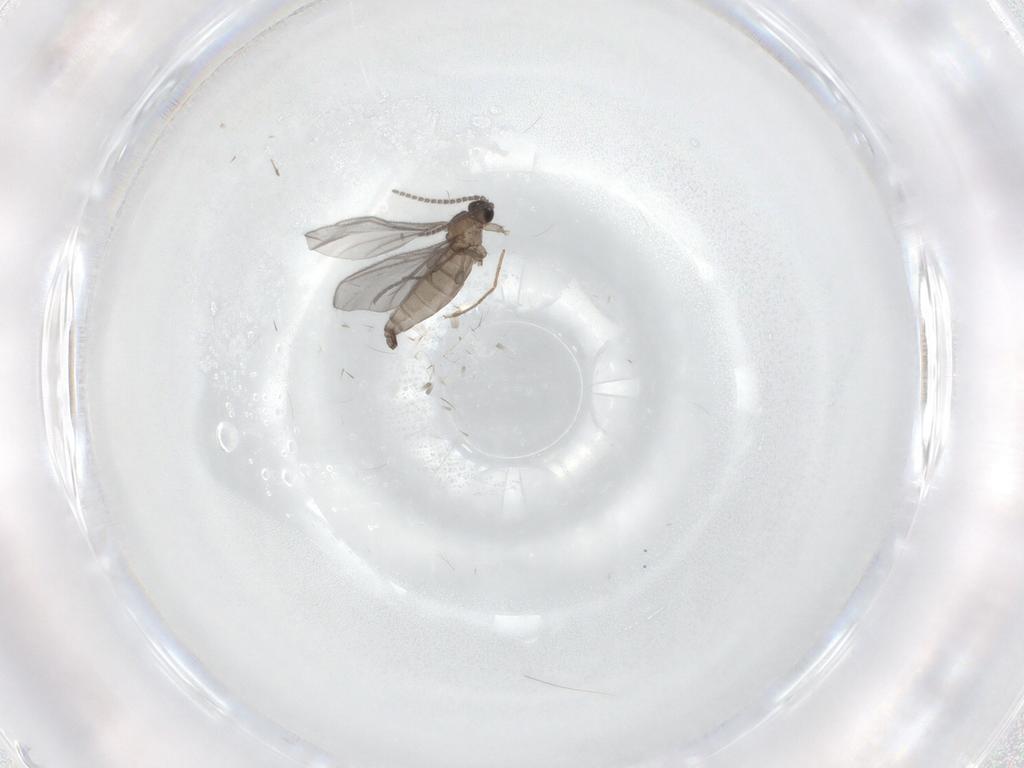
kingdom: Animalia
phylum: Arthropoda
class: Insecta
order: Diptera
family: Sciaridae
